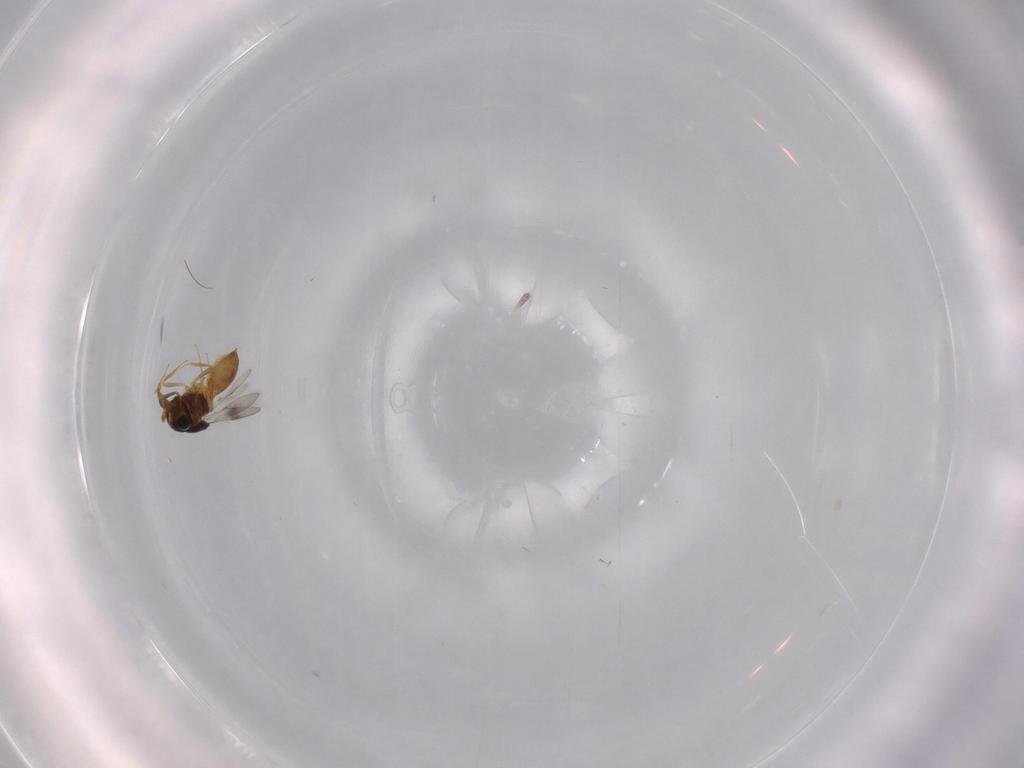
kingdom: Animalia
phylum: Arthropoda
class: Insecta
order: Hymenoptera
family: Scelionidae
